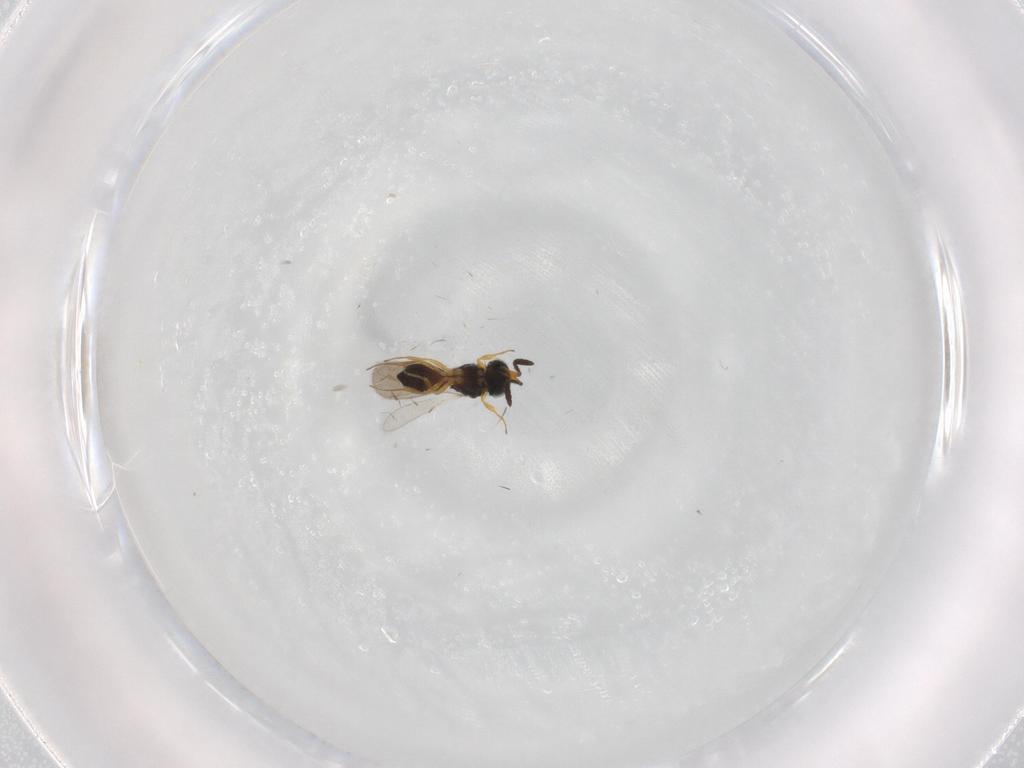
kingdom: Animalia
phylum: Arthropoda
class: Insecta
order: Hymenoptera
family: Scelionidae
